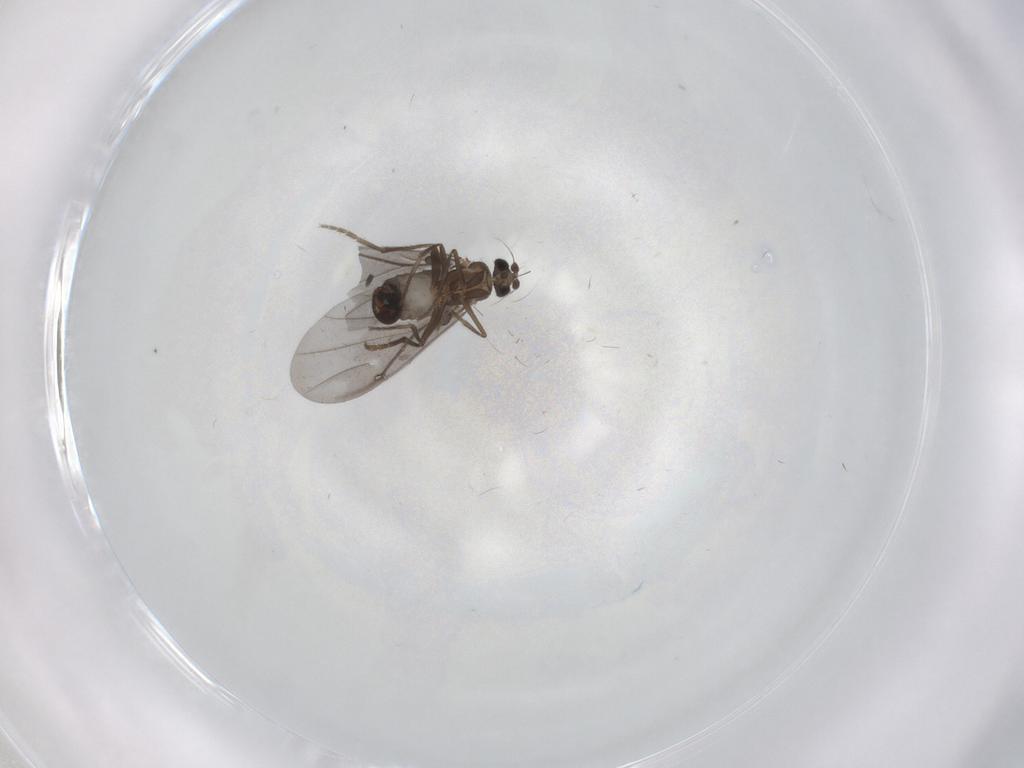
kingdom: Animalia
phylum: Arthropoda
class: Insecta
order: Diptera
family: Phoridae
